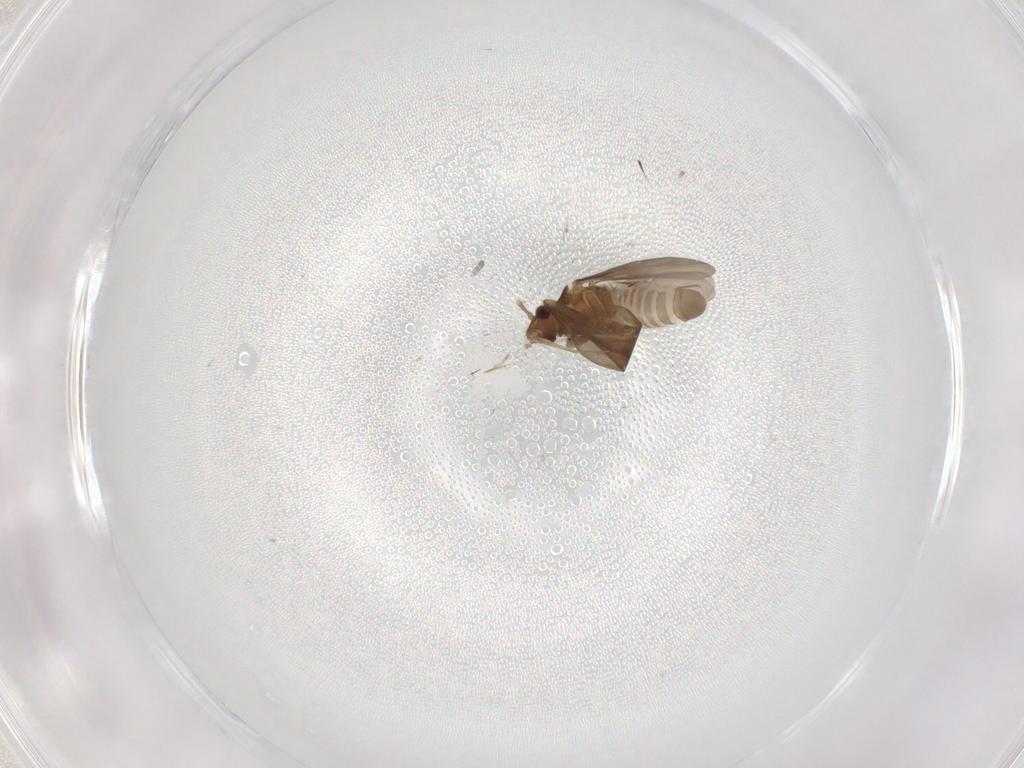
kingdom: Animalia
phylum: Arthropoda
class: Insecta
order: Hemiptera
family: Ceratocombidae
